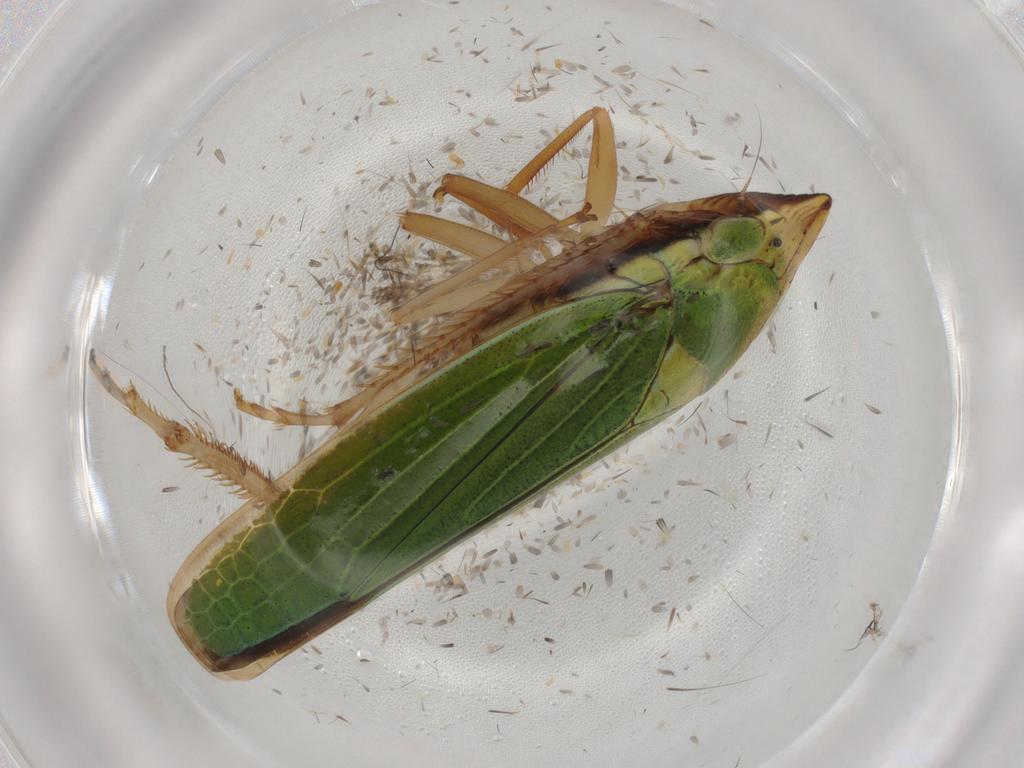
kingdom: Animalia
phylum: Arthropoda
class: Insecta
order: Hemiptera
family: Cicadellidae
